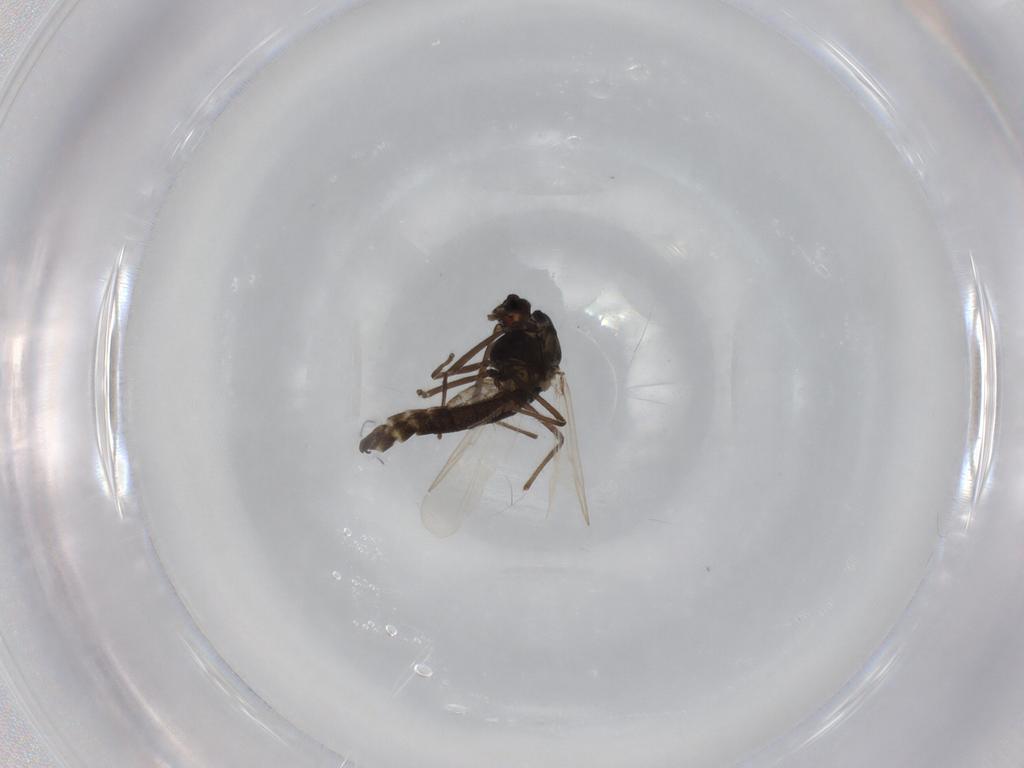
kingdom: Animalia
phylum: Arthropoda
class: Insecta
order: Diptera
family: Chironomidae
